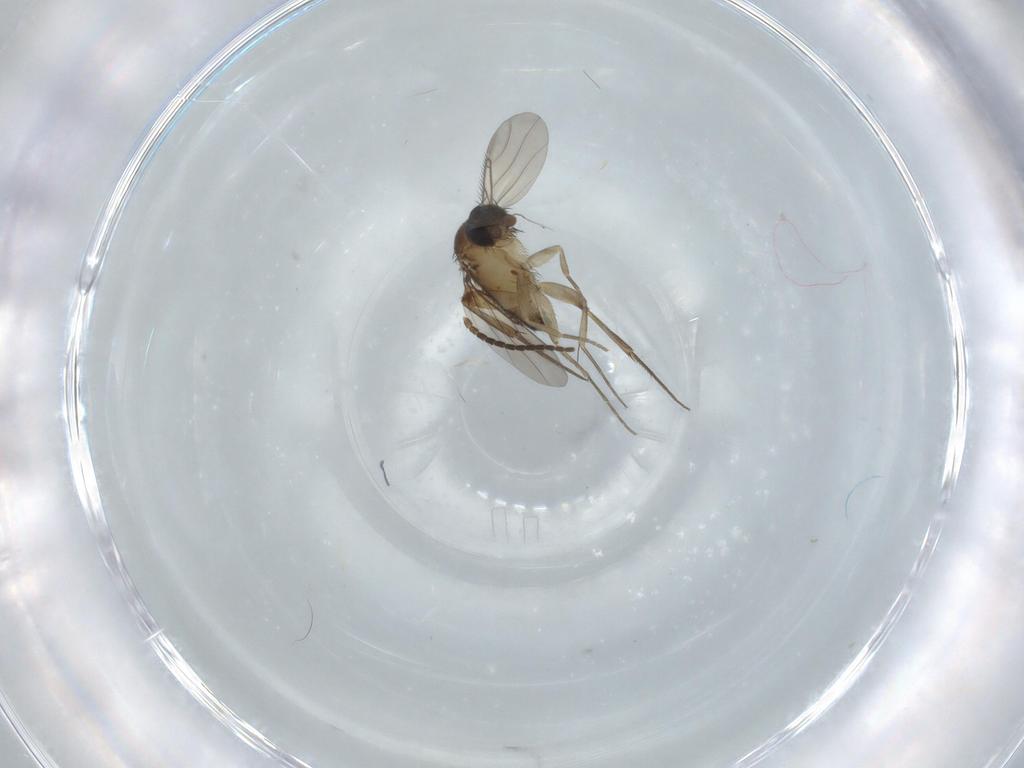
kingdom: Animalia
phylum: Arthropoda
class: Insecta
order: Diptera
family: Phoridae
